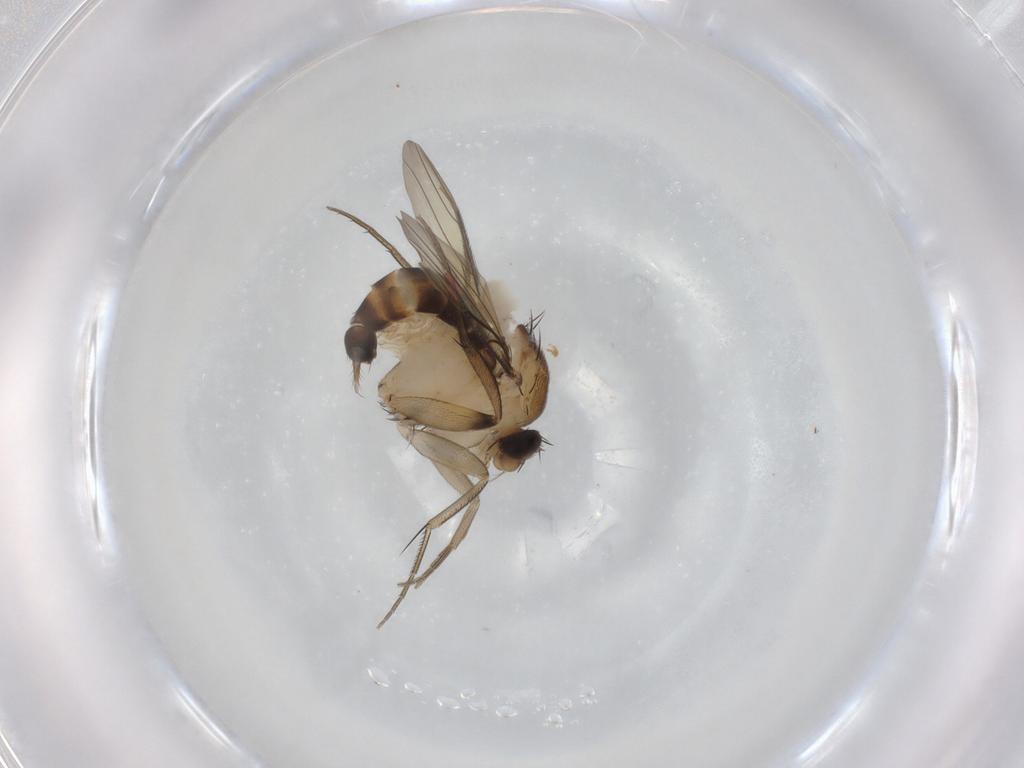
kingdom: Animalia
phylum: Arthropoda
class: Insecta
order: Diptera
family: Phoridae
